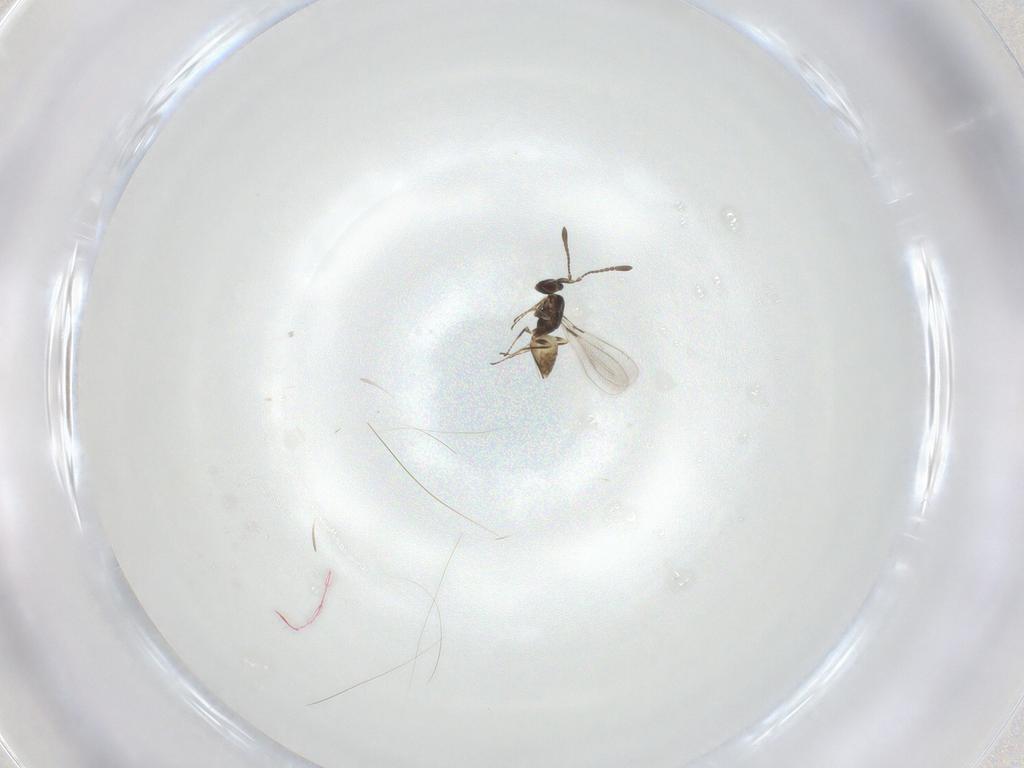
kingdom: Animalia
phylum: Arthropoda
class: Insecta
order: Hymenoptera
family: Mymaridae
